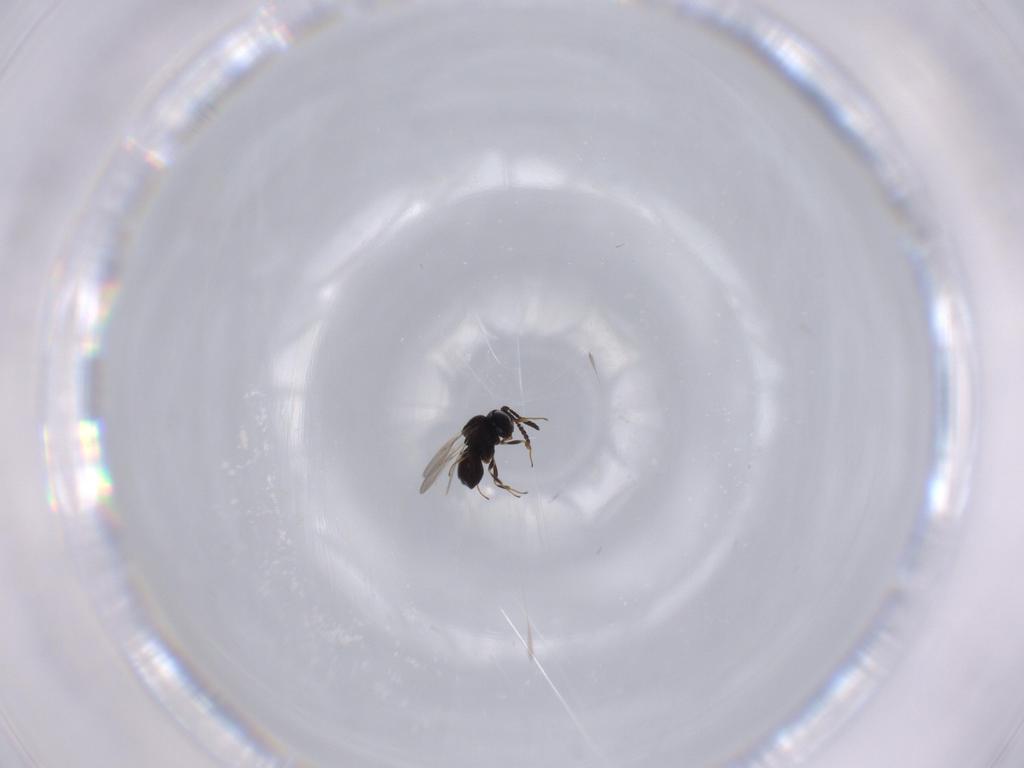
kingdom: Animalia
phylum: Arthropoda
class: Insecta
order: Hymenoptera
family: Scelionidae
